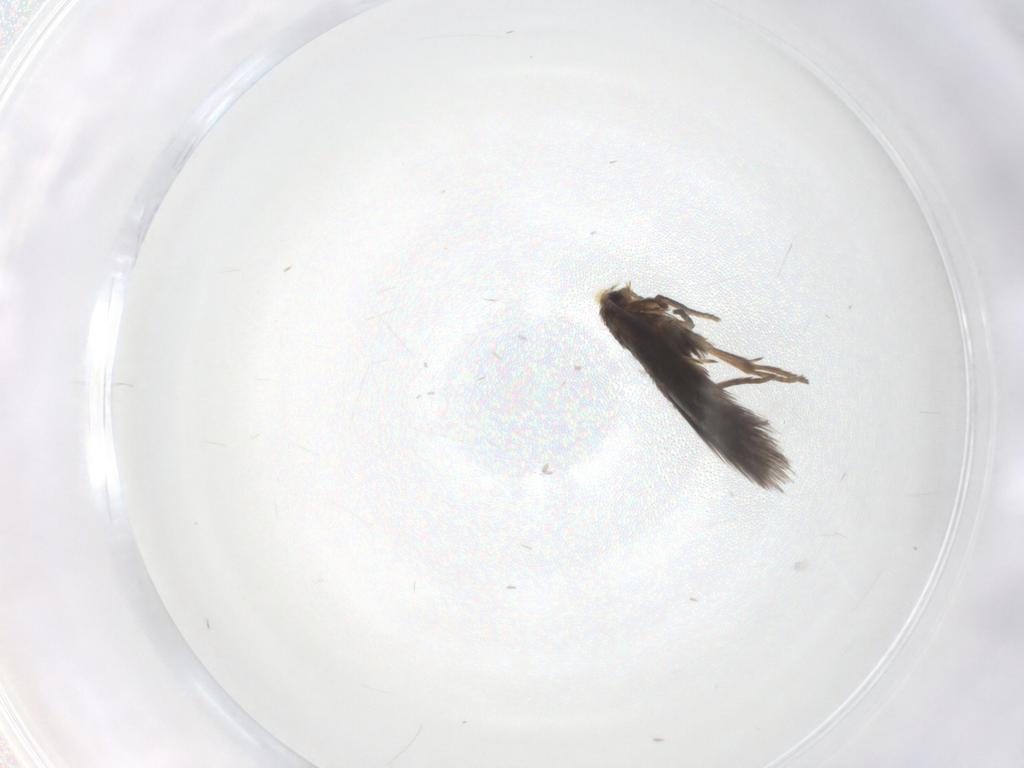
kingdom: Animalia
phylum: Arthropoda
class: Insecta
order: Lepidoptera
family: Nepticulidae
